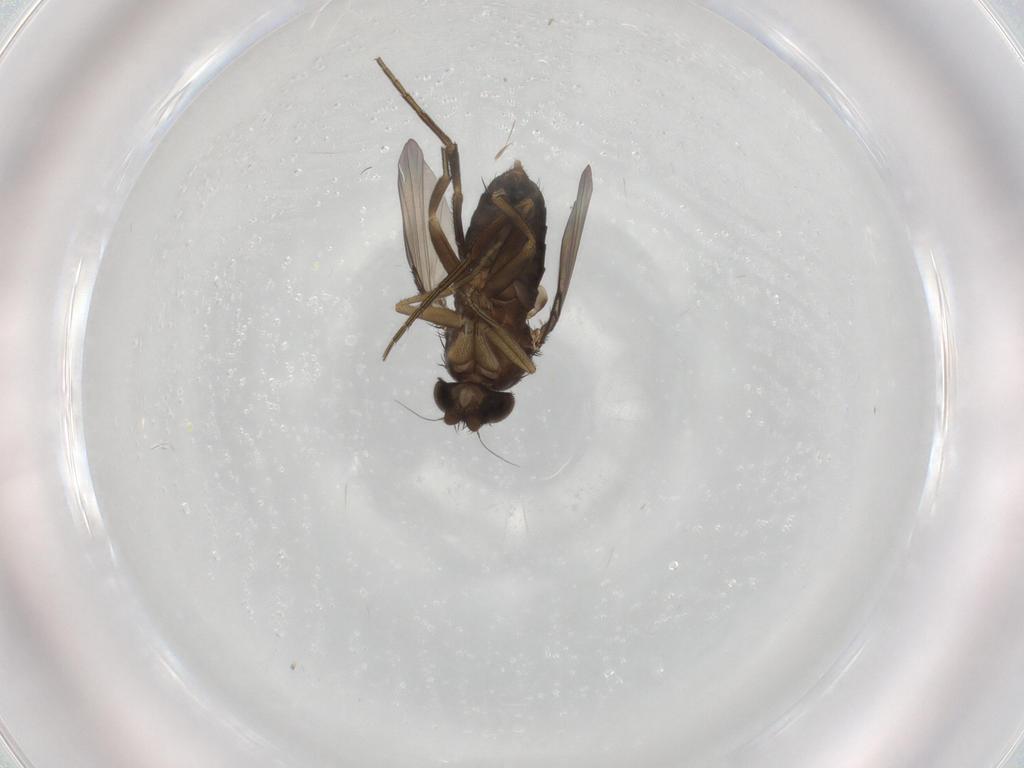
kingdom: Animalia
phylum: Arthropoda
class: Insecta
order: Diptera
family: Phoridae
